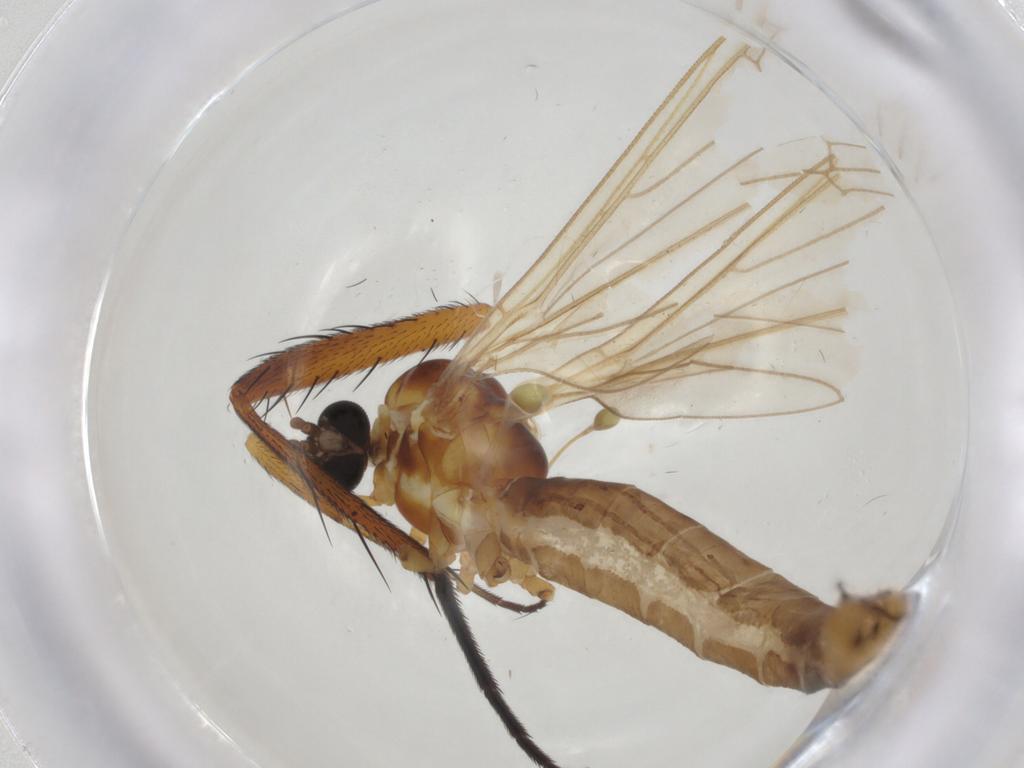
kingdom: Animalia
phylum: Arthropoda
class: Insecta
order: Diptera
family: Limoniidae
